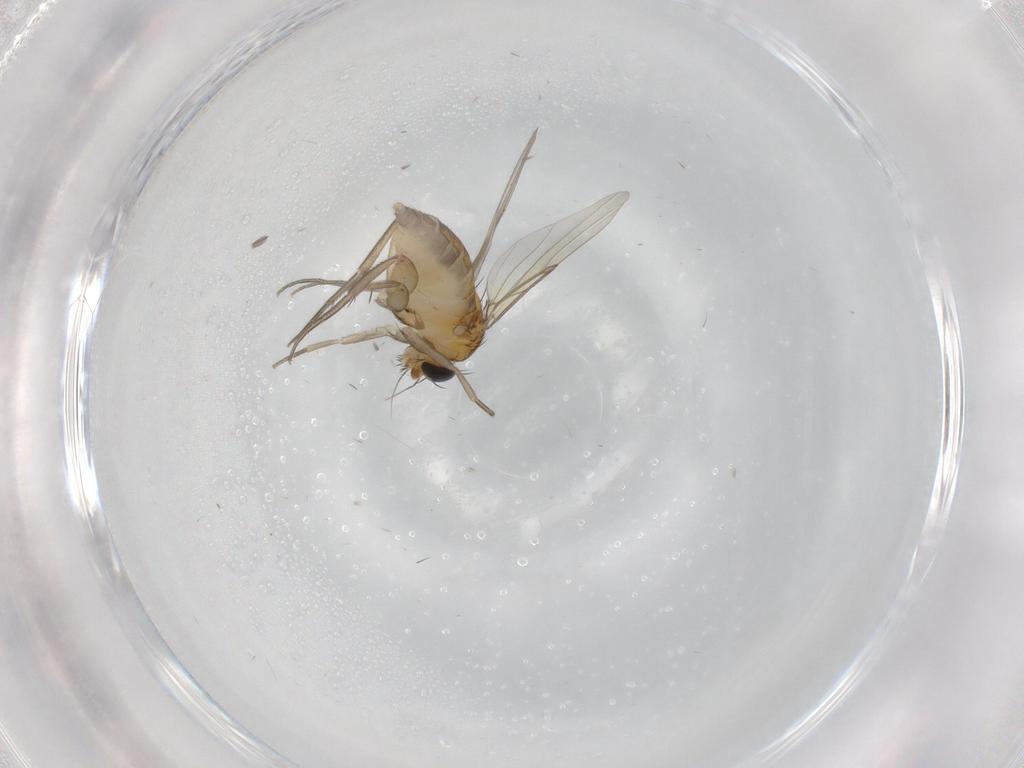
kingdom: Animalia
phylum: Arthropoda
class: Insecta
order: Diptera
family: Phoridae
